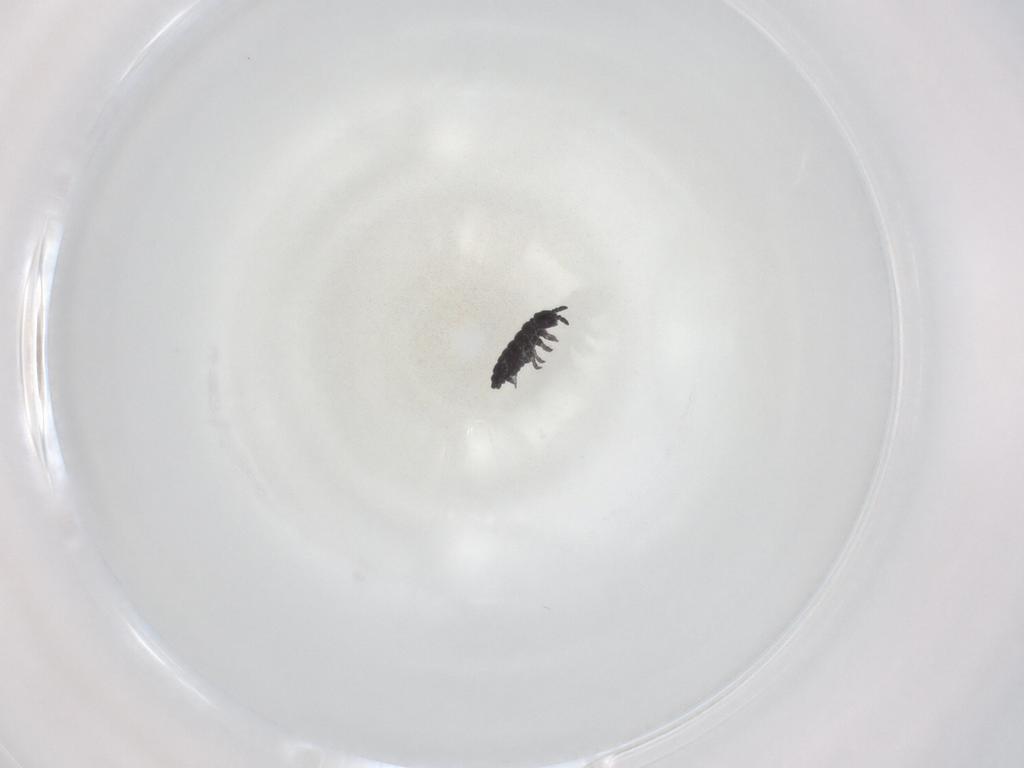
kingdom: Animalia
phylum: Arthropoda
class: Collembola
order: Poduromorpha
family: Hypogastruridae
